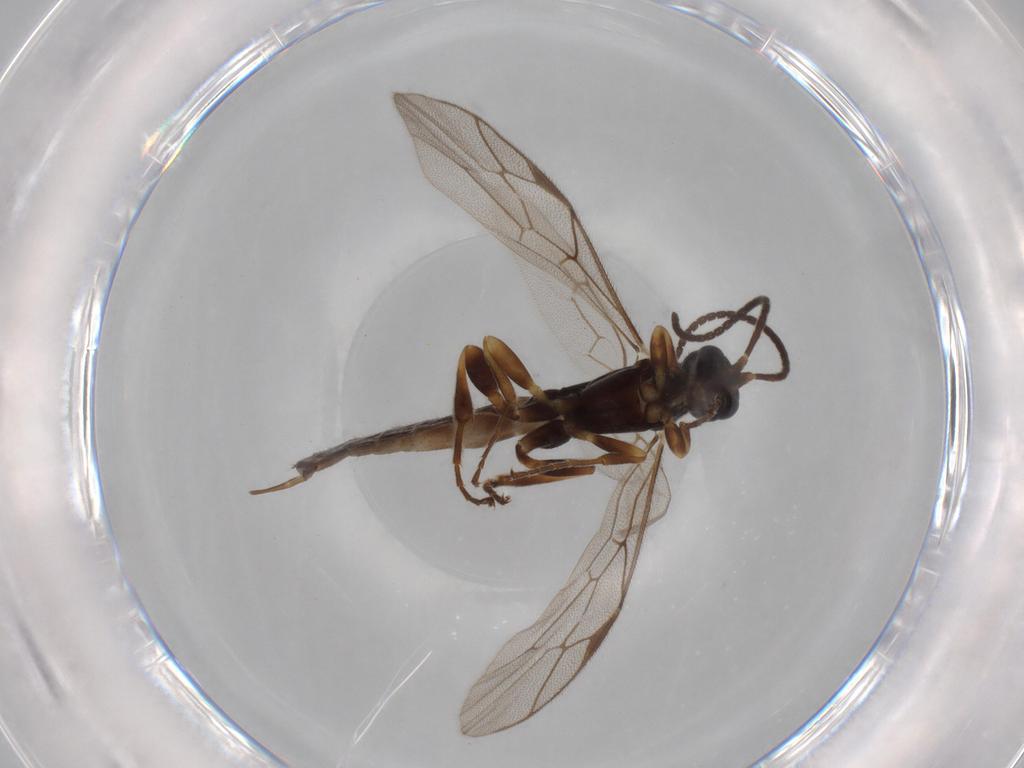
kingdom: Animalia
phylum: Arthropoda
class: Insecta
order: Hymenoptera
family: Ichneumonidae
